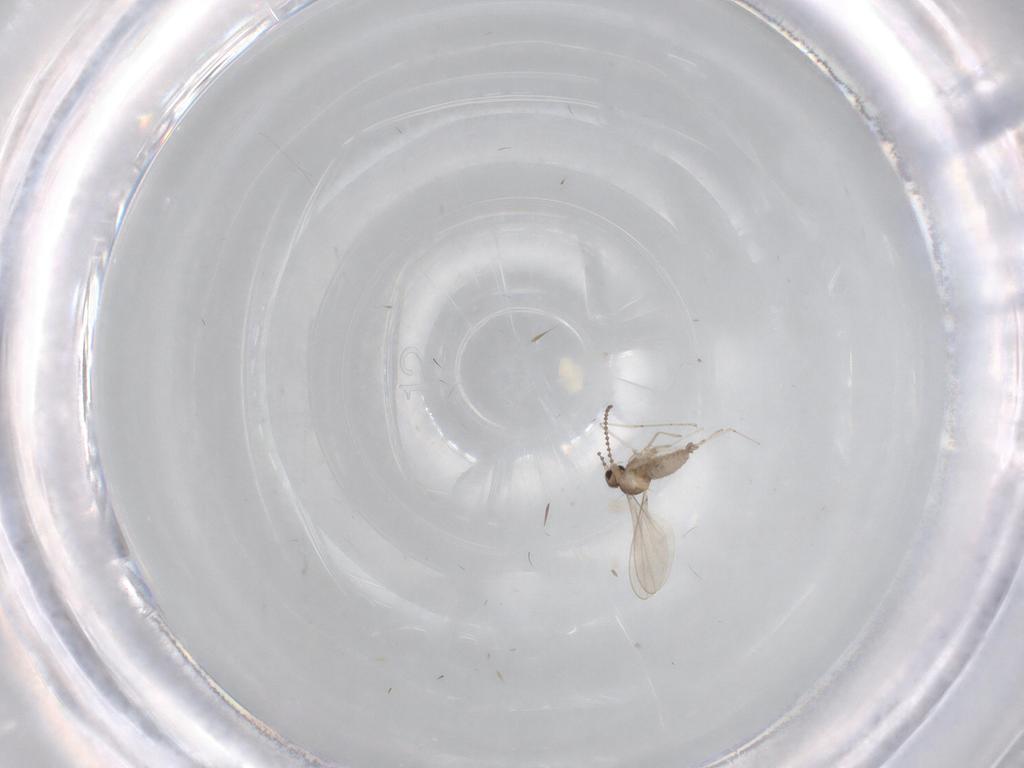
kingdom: Animalia
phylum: Arthropoda
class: Insecta
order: Diptera
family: Cecidomyiidae
